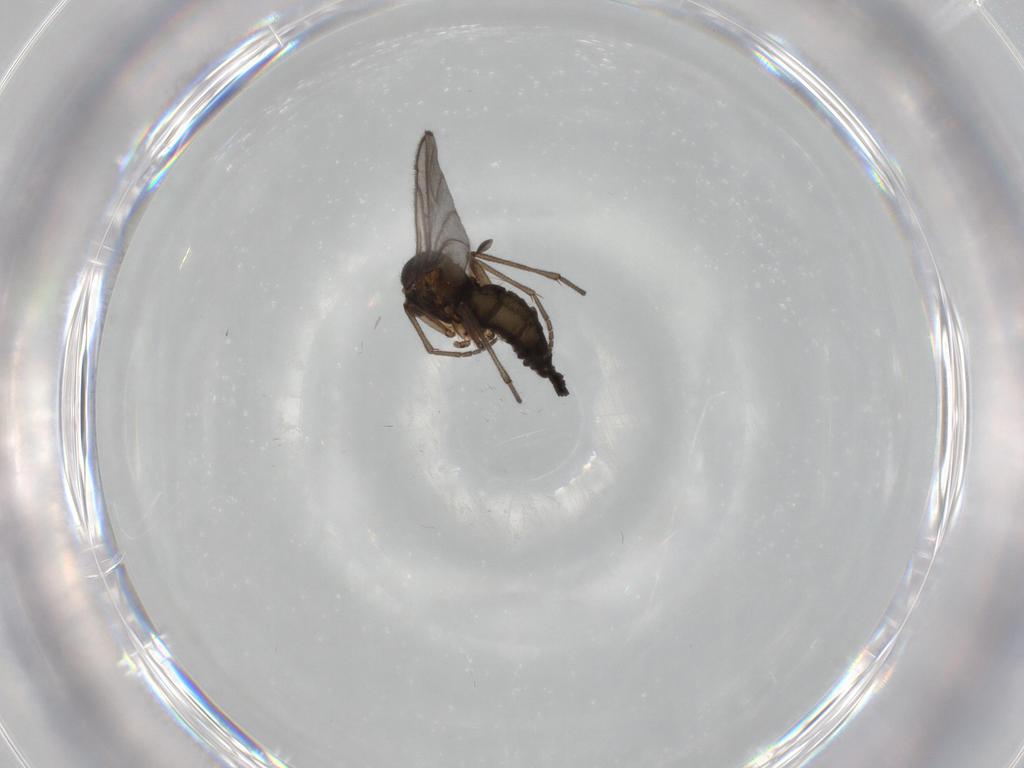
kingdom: Animalia
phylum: Arthropoda
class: Insecta
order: Diptera
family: Sciaridae
